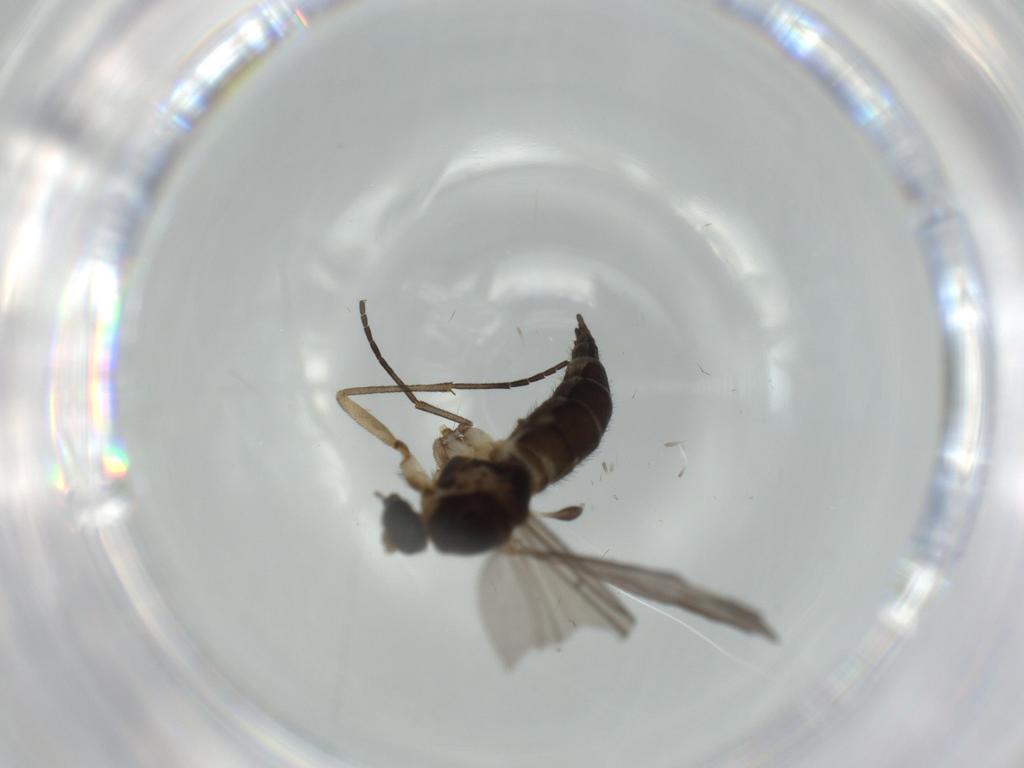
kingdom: Animalia
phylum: Arthropoda
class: Insecta
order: Diptera
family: Sciaridae
